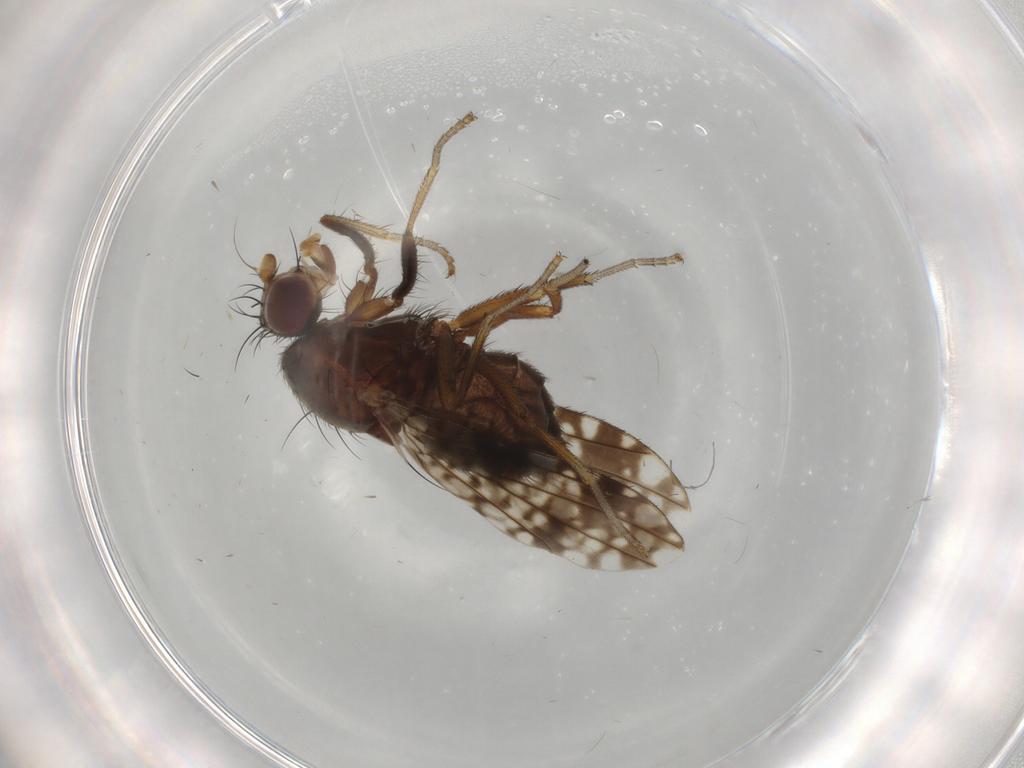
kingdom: Animalia
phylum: Arthropoda
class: Insecta
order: Diptera
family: Tephritidae
